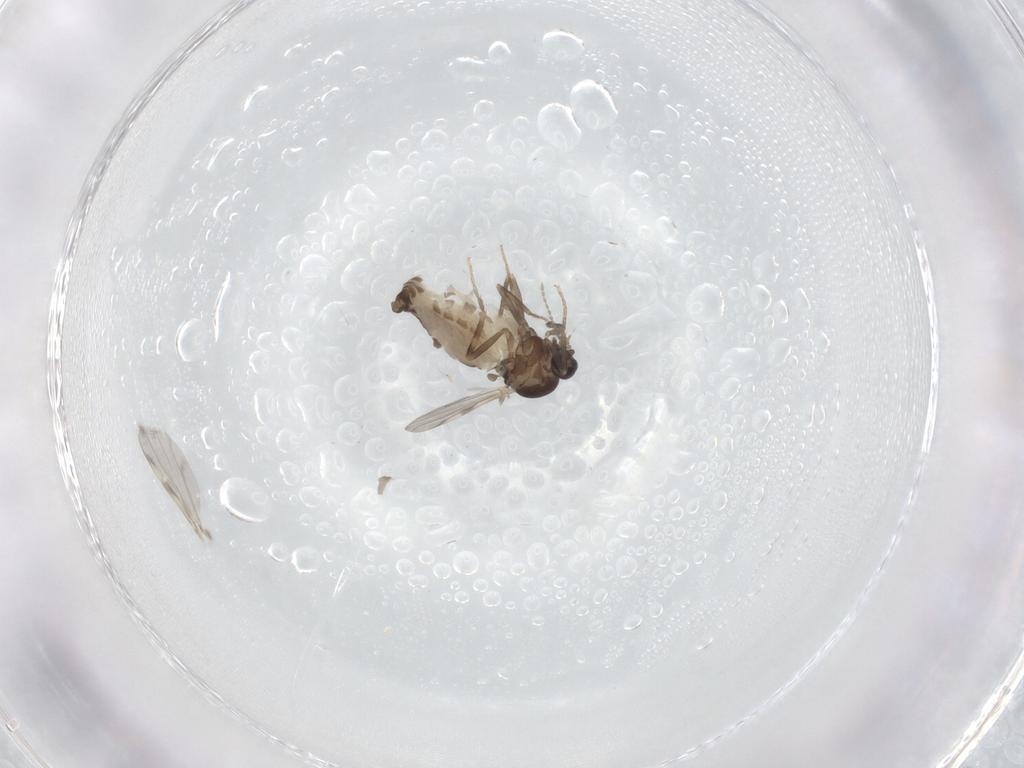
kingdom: Animalia
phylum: Arthropoda
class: Insecta
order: Diptera
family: Ceratopogonidae
